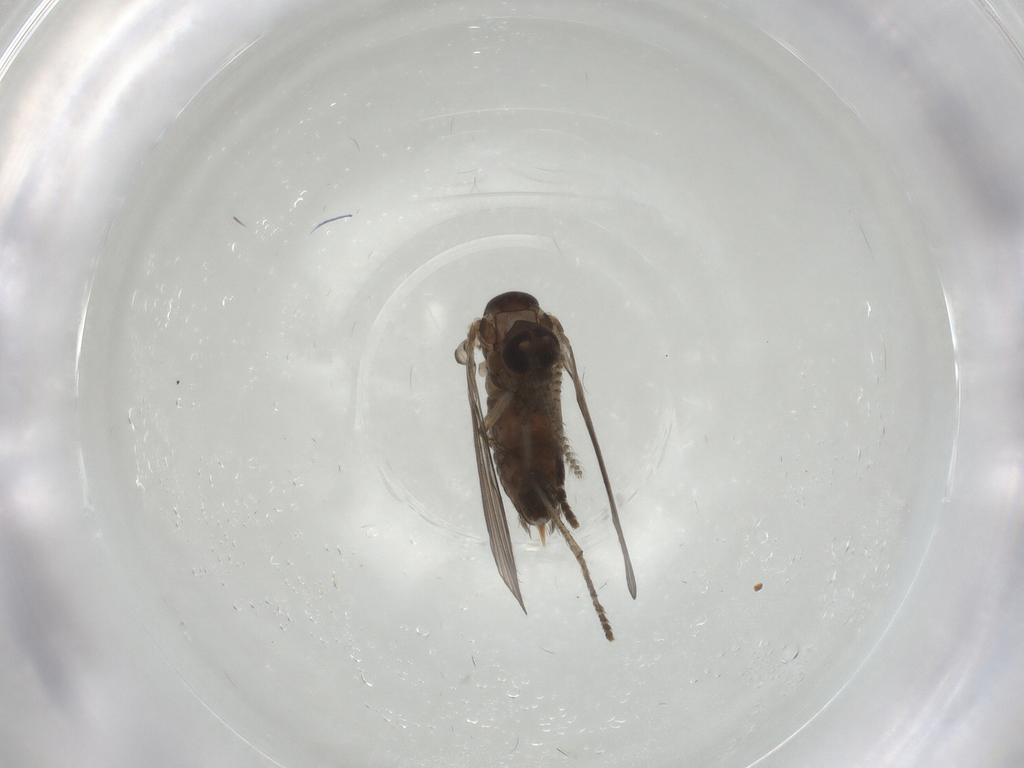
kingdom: Animalia
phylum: Arthropoda
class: Insecta
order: Diptera
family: Psychodidae
